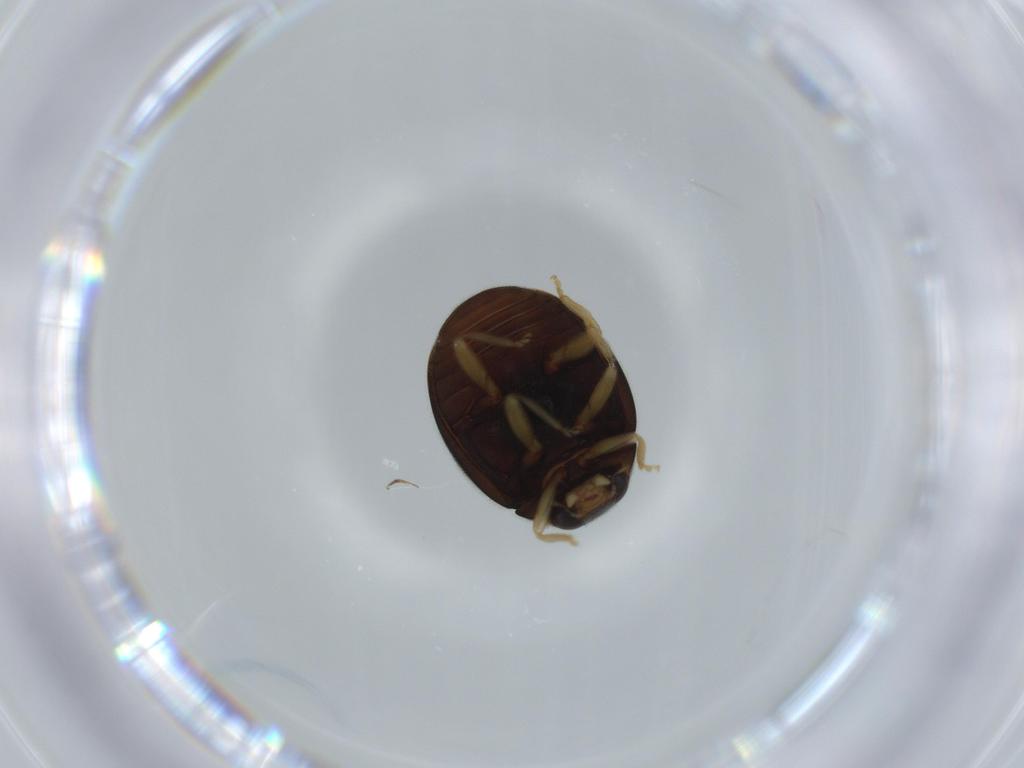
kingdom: Animalia
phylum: Arthropoda
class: Insecta
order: Coleoptera
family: Coccinellidae
